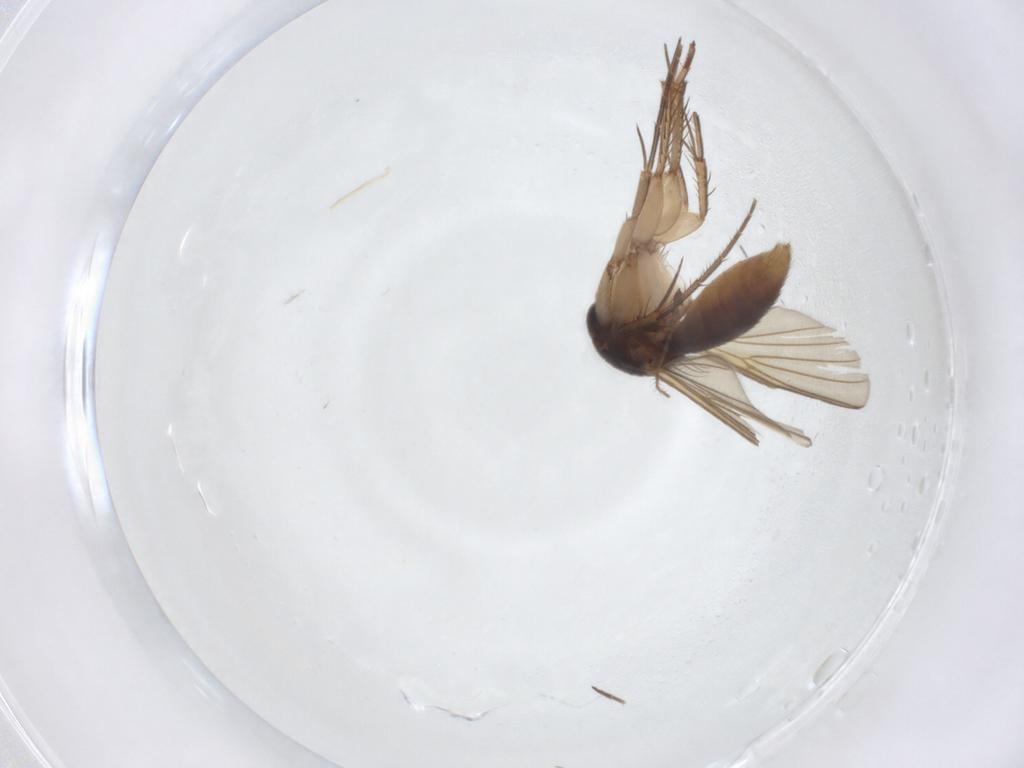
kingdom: Animalia
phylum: Arthropoda
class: Insecta
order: Diptera
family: Mycetophilidae
